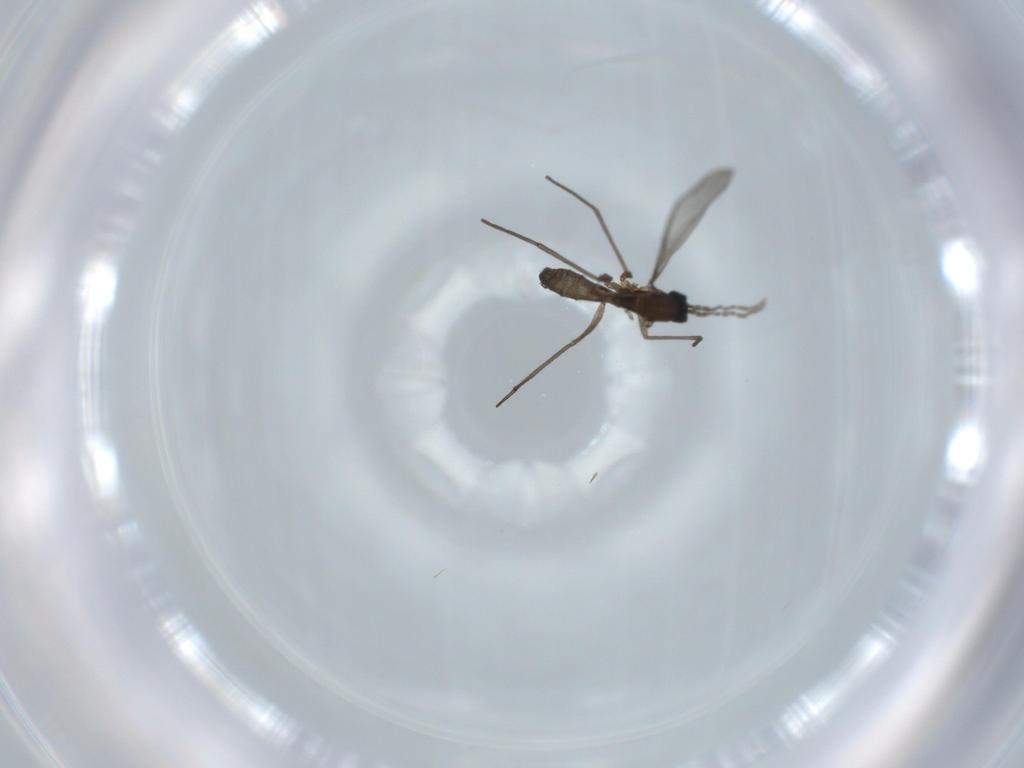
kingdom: Animalia
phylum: Arthropoda
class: Insecta
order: Diptera
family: Sciaridae
